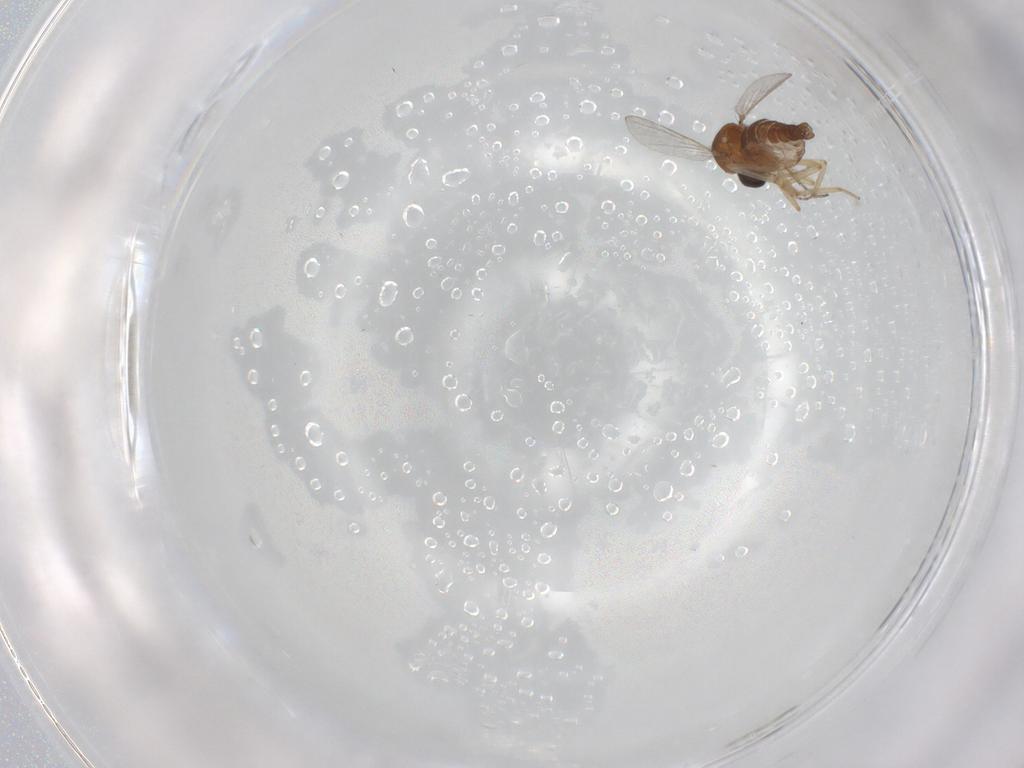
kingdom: Animalia
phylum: Arthropoda
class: Insecta
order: Diptera
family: Ceratopogonidae
